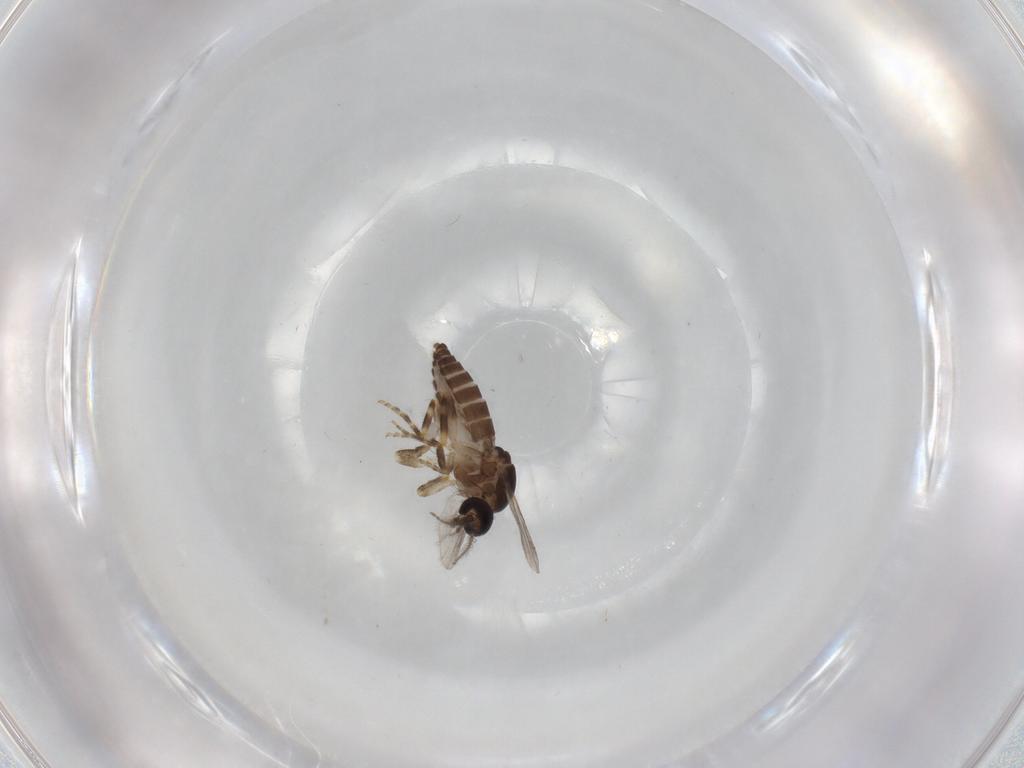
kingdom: Animalia
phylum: Arthropoda
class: Insecta
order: Diptera
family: Ceratopogonidae
